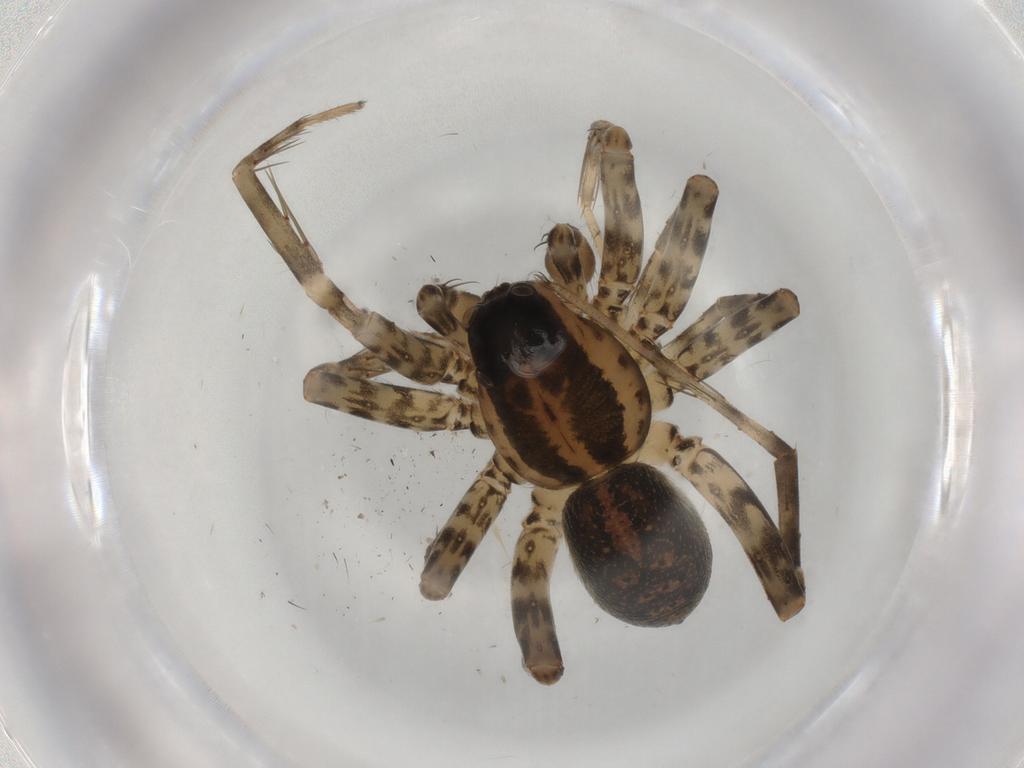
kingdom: Animalia
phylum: Arthropoda
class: Arachnida
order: Araneae
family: Lycosidae
